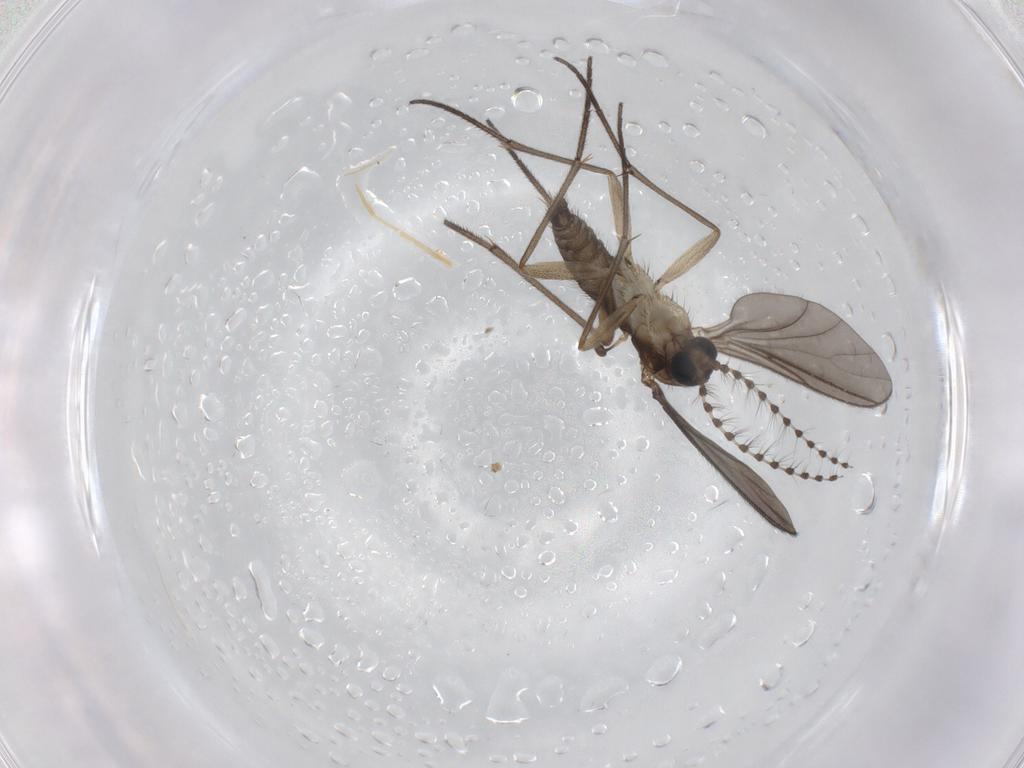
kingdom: Animalia
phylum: Arthropoda
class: Insecta
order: Diptera
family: Sciaridae
